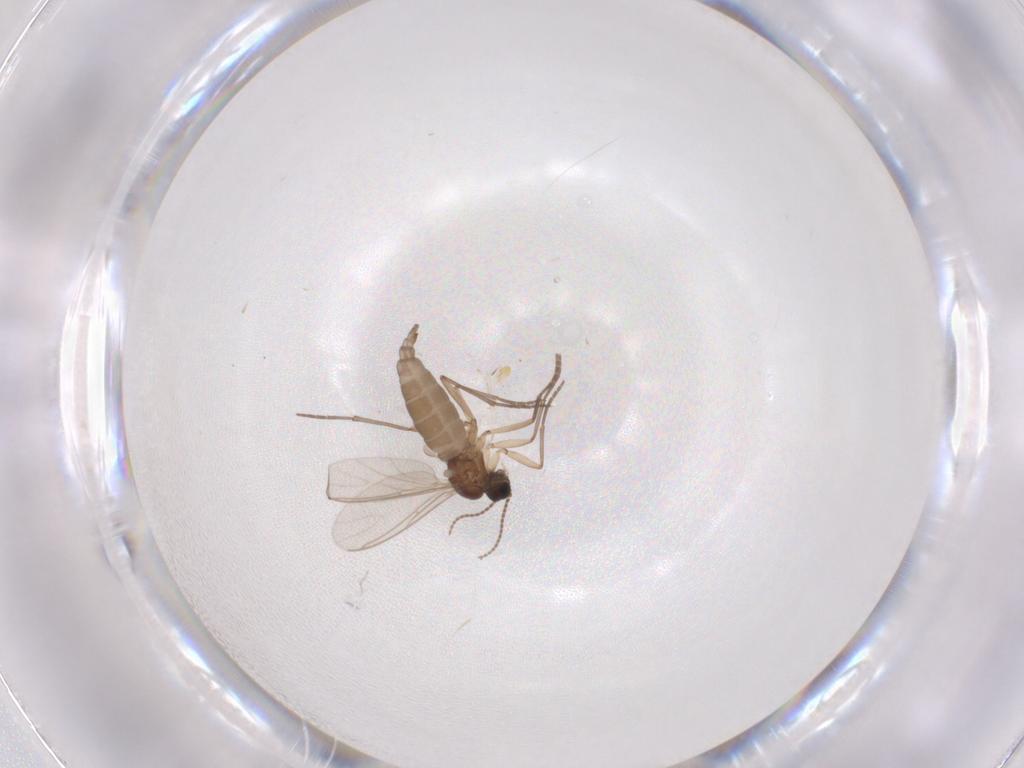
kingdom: Animalia
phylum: Arthropoda
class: Insecta
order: Diptera
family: Sciaridae
